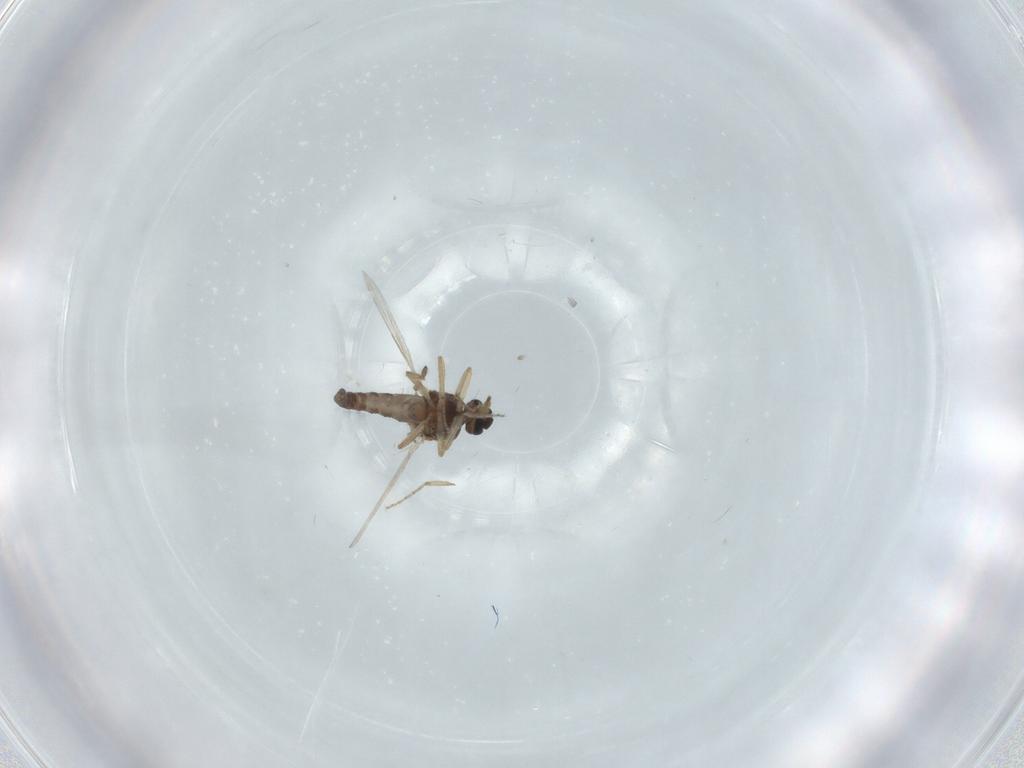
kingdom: Animalia
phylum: Arthropoda
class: Insecta
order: Diptera
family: Ceratopogonidae
